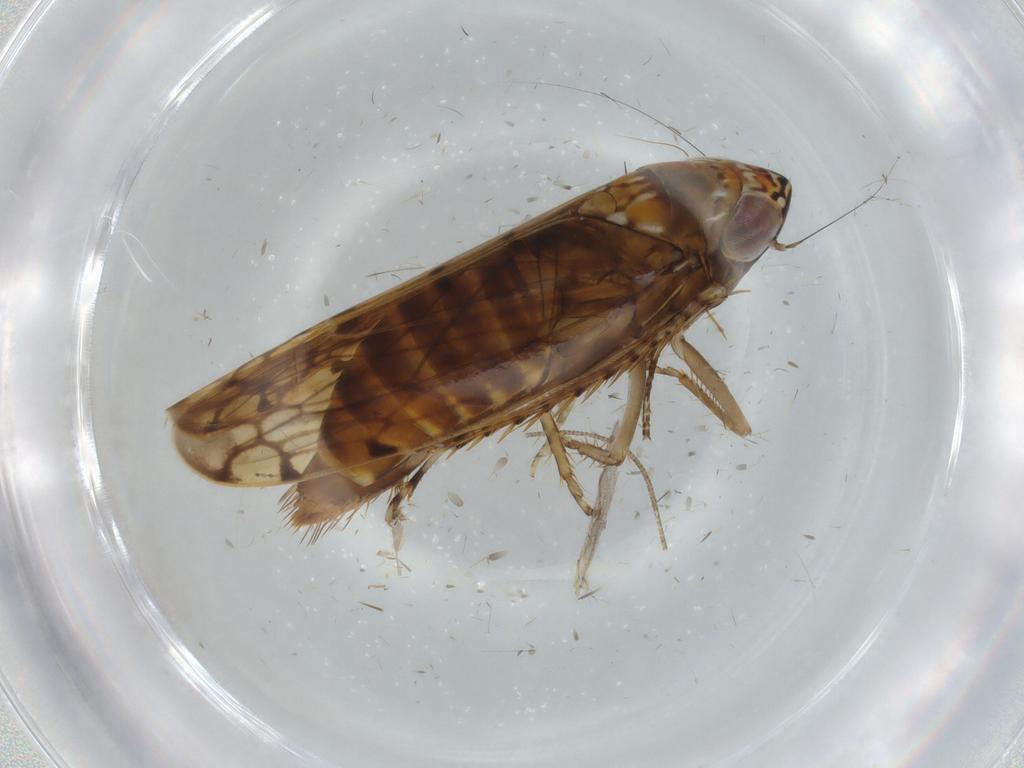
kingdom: Animalia
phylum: Arthropoda
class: Insecta
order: Hemiptera
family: Cicadellidae
